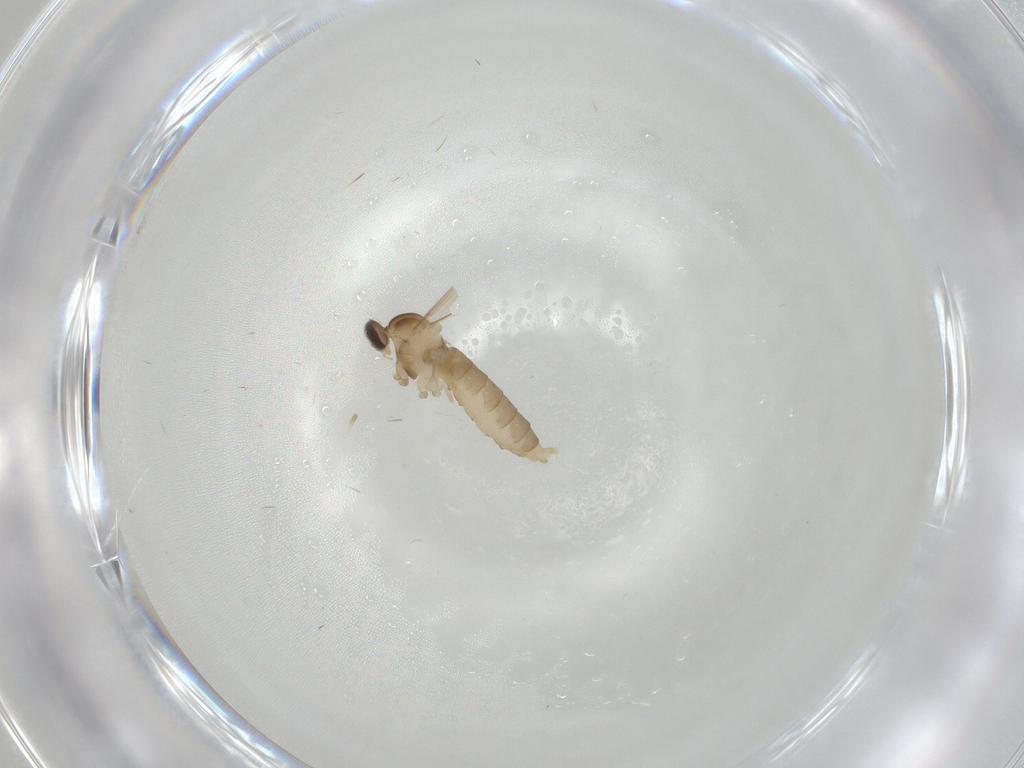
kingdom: Animalia
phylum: Arthropoda
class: Insecta
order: Diptera
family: Cecidomyiidae
